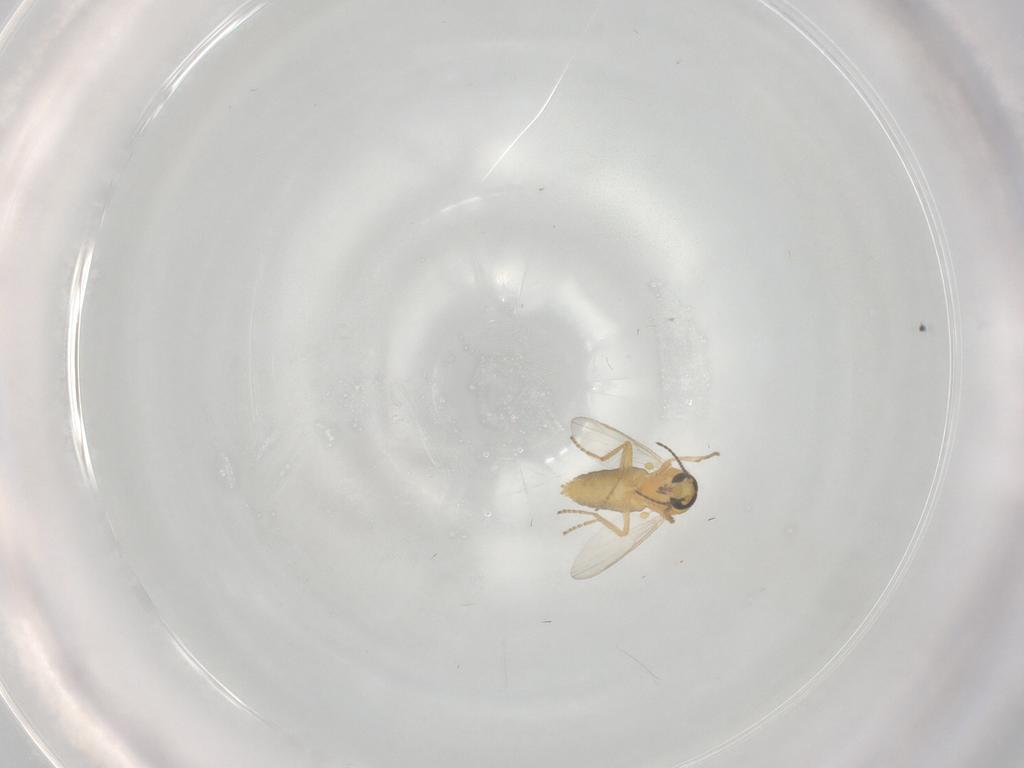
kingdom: Animalia
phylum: Arthropoda
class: Insecta
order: Diptera
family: Ceratopogonidae
